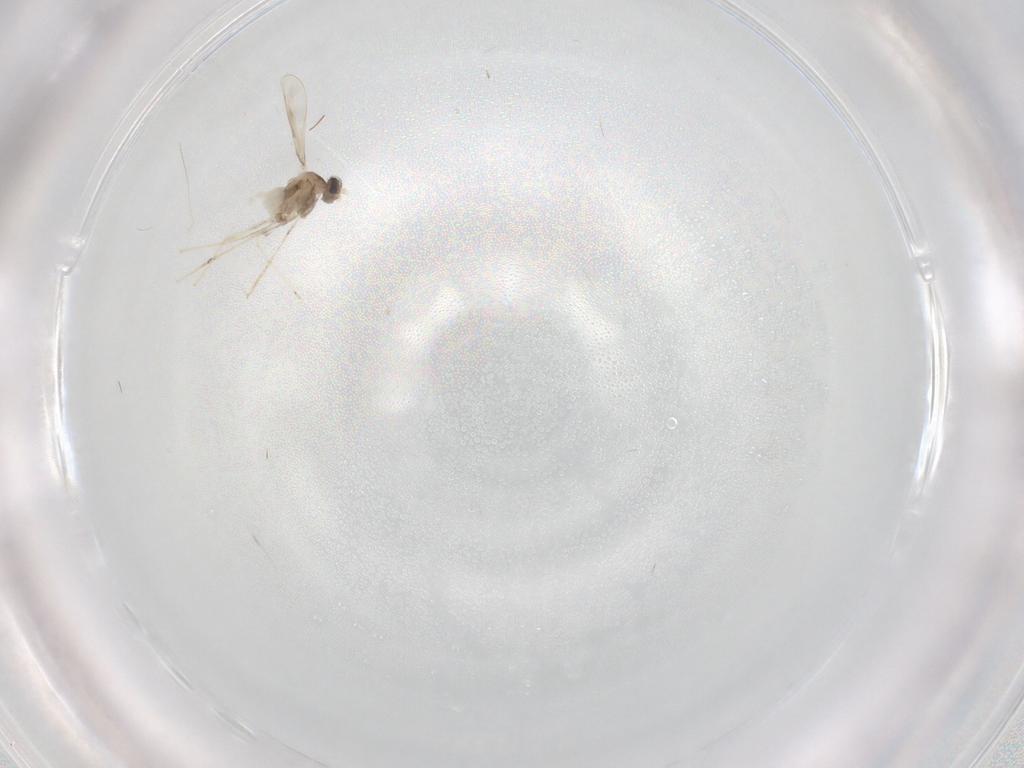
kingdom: Animalia
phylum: Arthropoda
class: Insecta
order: Diptera
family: Cecidomyiidae
